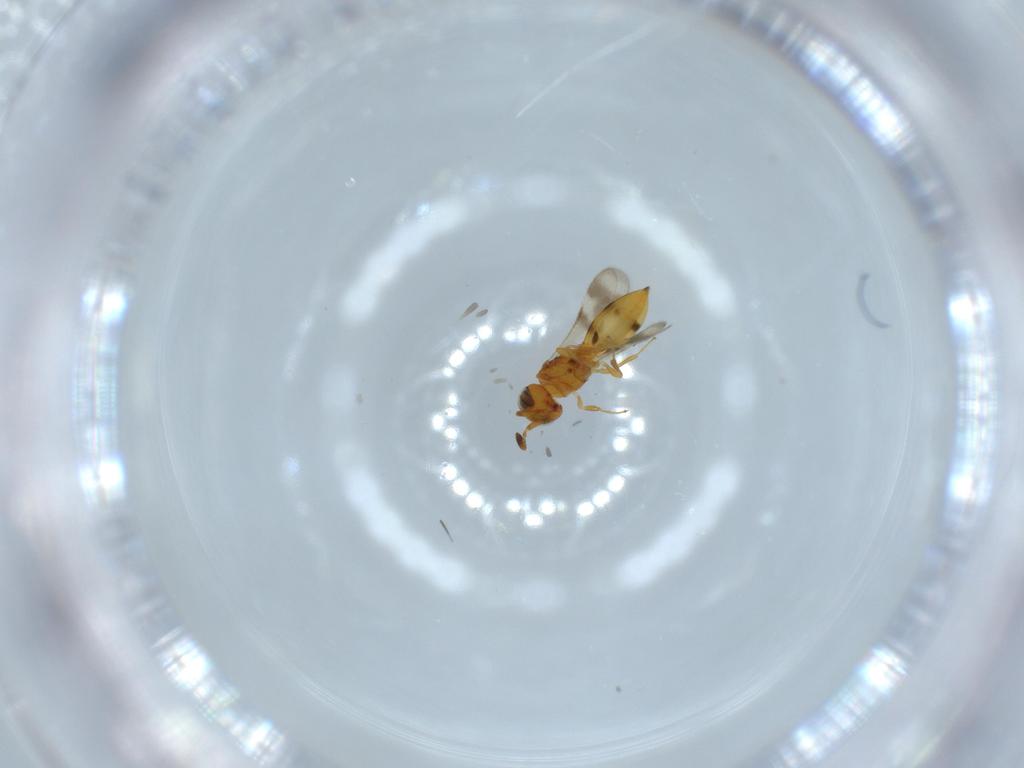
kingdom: Animalia
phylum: Arthropoda
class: Insecta
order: Hymenoptera
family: Scelionidae
